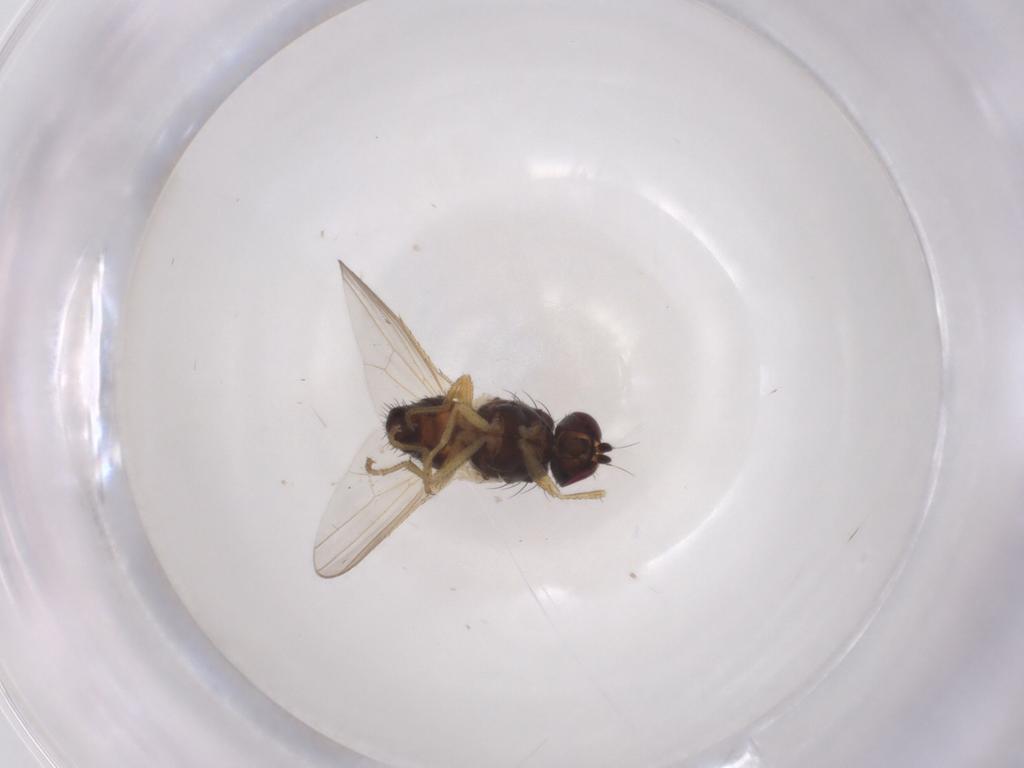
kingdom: Animalia
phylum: Arthropoda
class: Insecta
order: Diptera
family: Heleomyzidae
